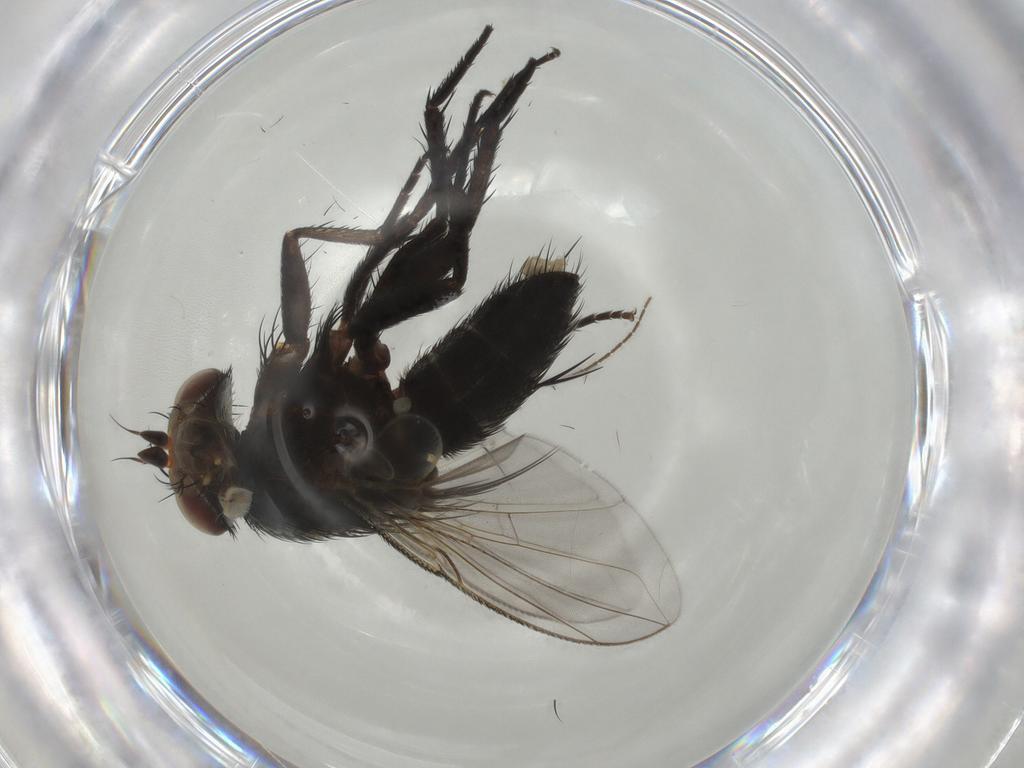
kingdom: Animalia
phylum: Arthropoda
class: Insecta
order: Diptera
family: Tachinidae
